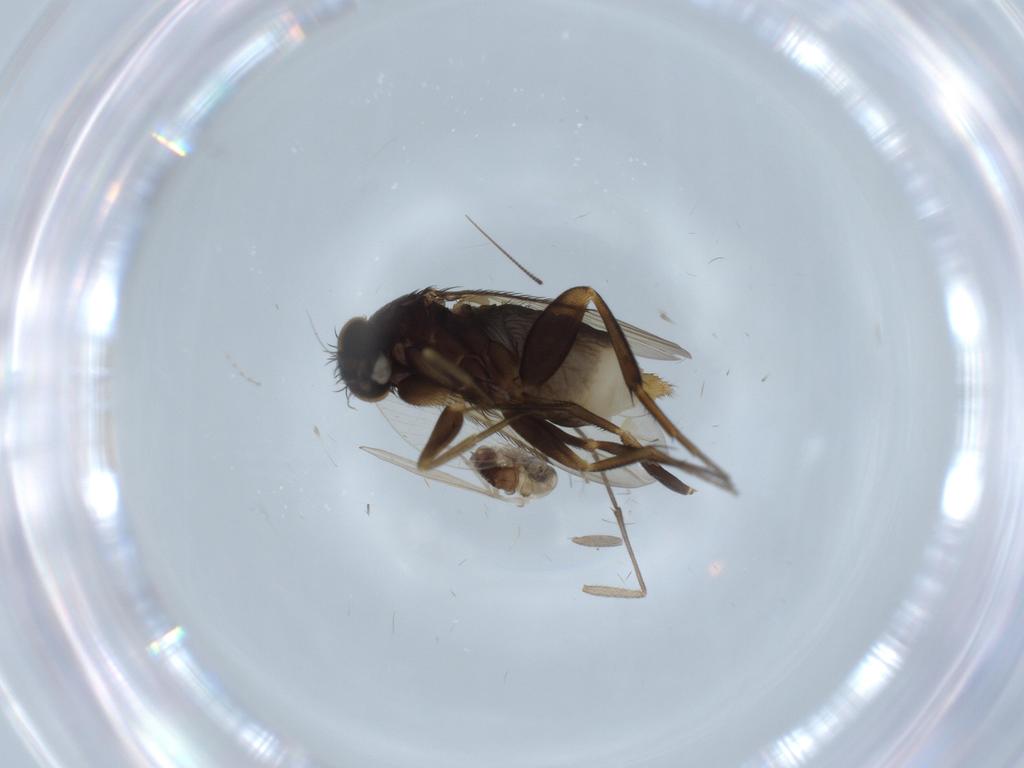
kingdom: Animalia
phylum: Arthropoda
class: Insecta
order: Diptera
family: Psychodidae
